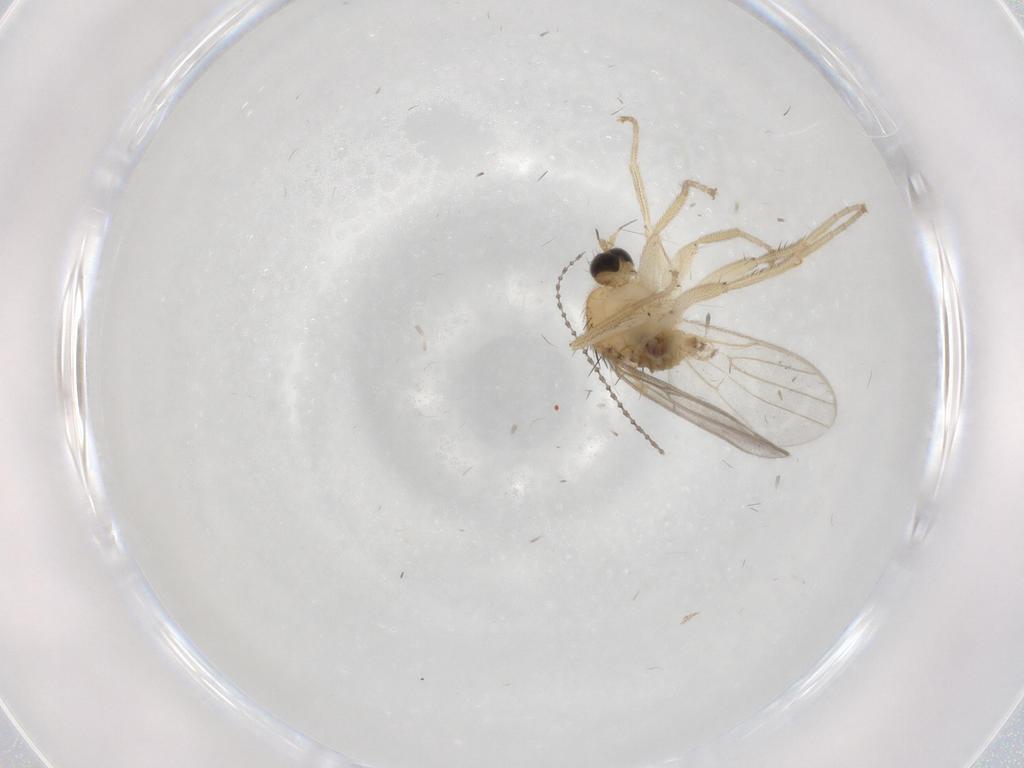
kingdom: Animalia
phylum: Arthropoda
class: Insecta
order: Diptera
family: Hybotidae
